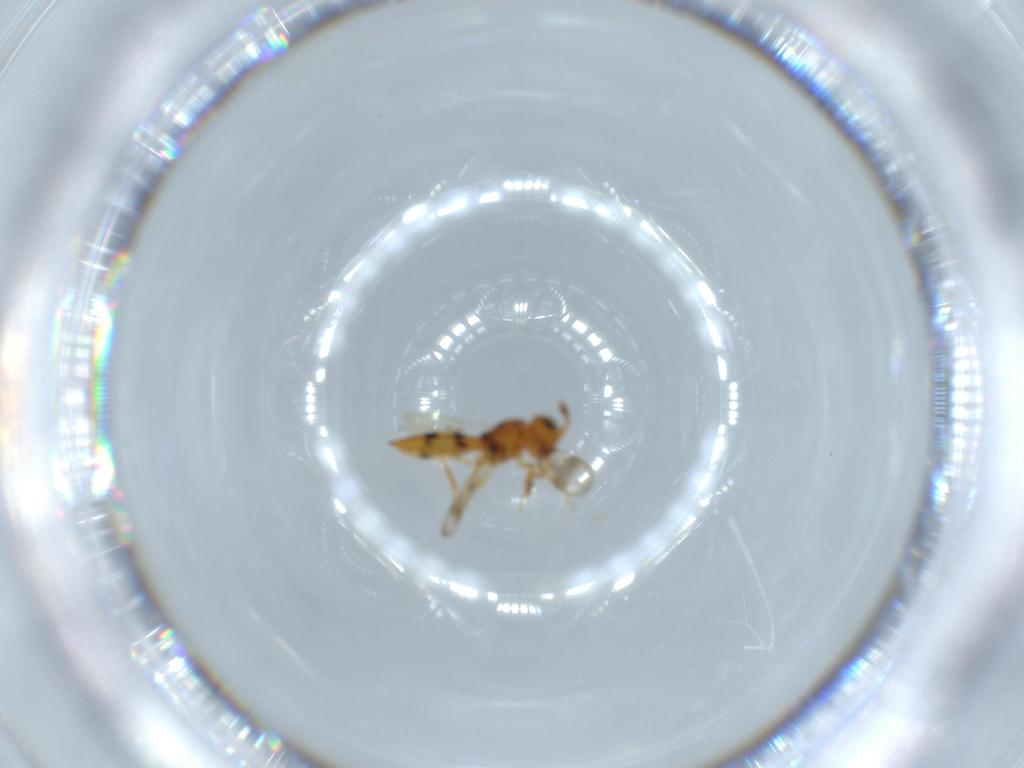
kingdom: Animalia
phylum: Arthropoda
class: Insecta
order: Hymenoptera
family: Scelionidae
